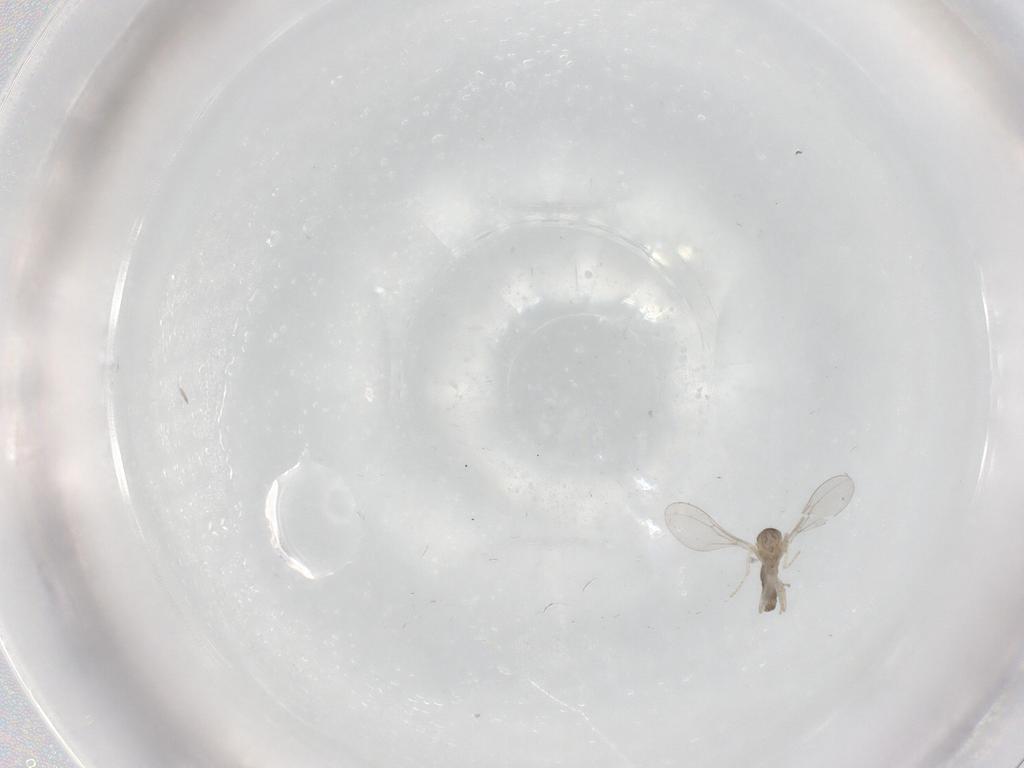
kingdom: Animalia
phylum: Arthropoda
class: Insecta
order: Diptera
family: Cecidomyiidae
